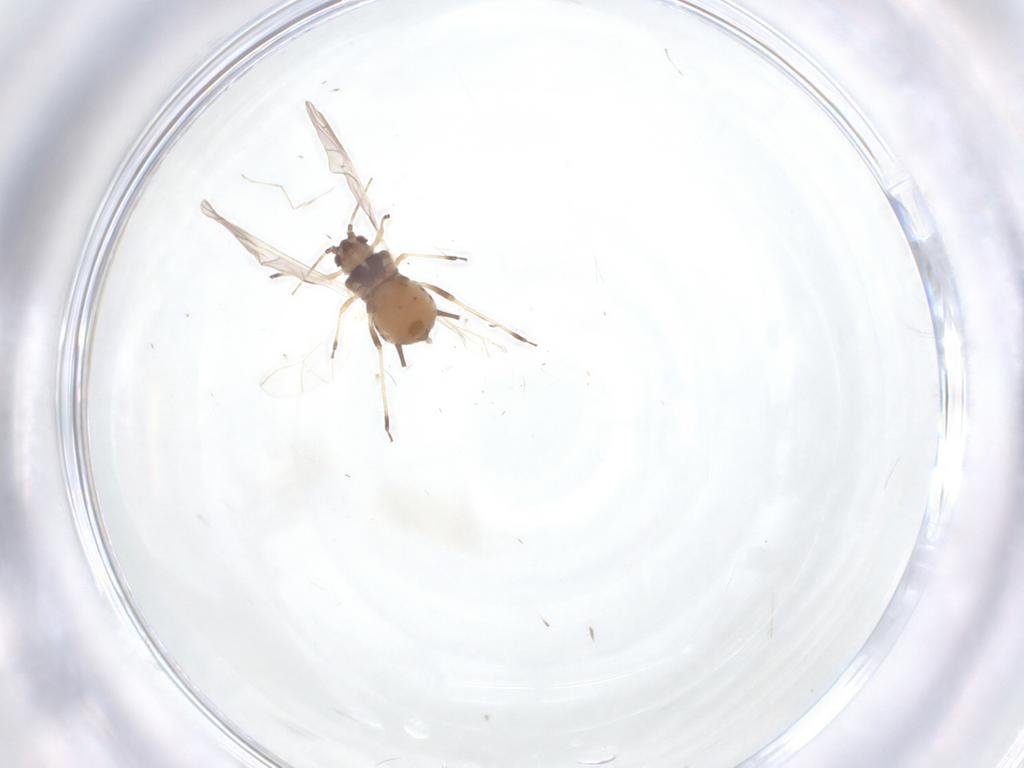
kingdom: Animalia
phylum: Arthropoda
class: Insecta
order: Hemiptera
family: Aphididae
